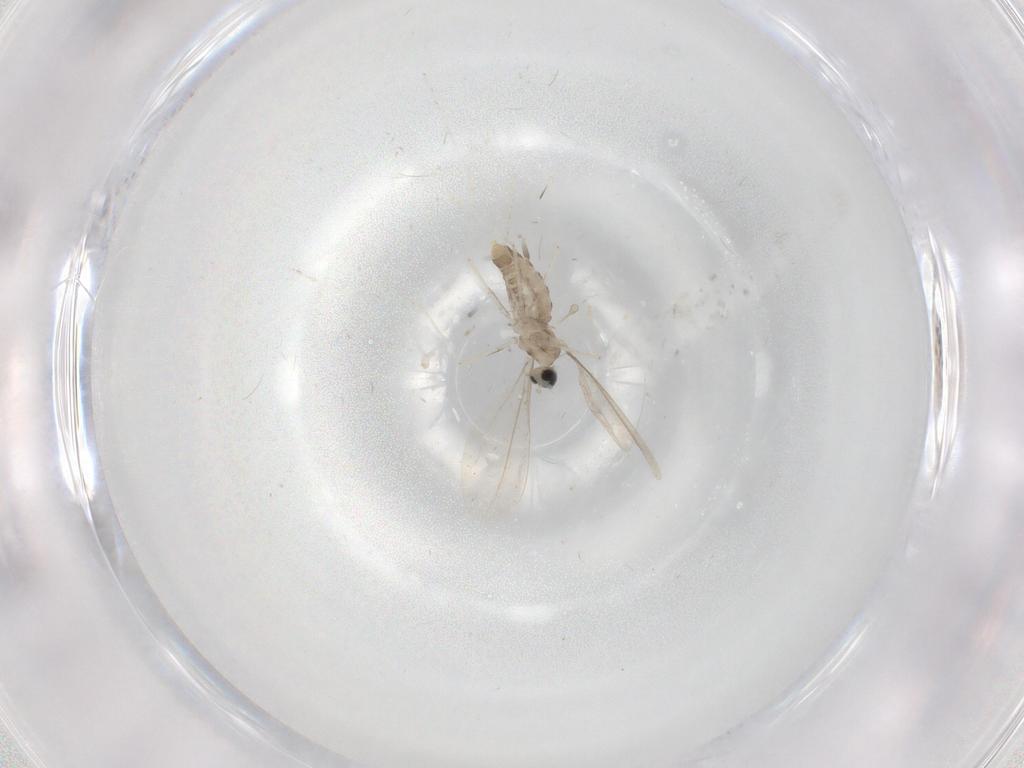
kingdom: Animalia
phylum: Arthropoda
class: Insecta
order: Diptera
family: Cecidomyiidae
